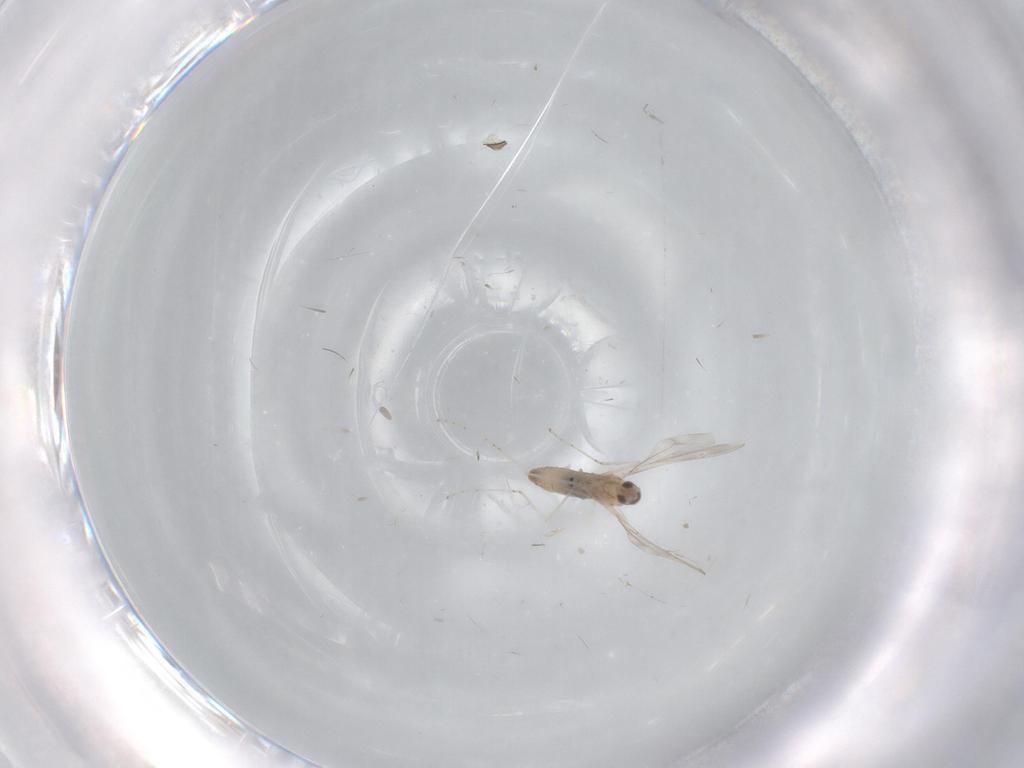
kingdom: Animalia
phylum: Arthropoda
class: Insecta
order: Diptera
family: Cecidomyiidae
